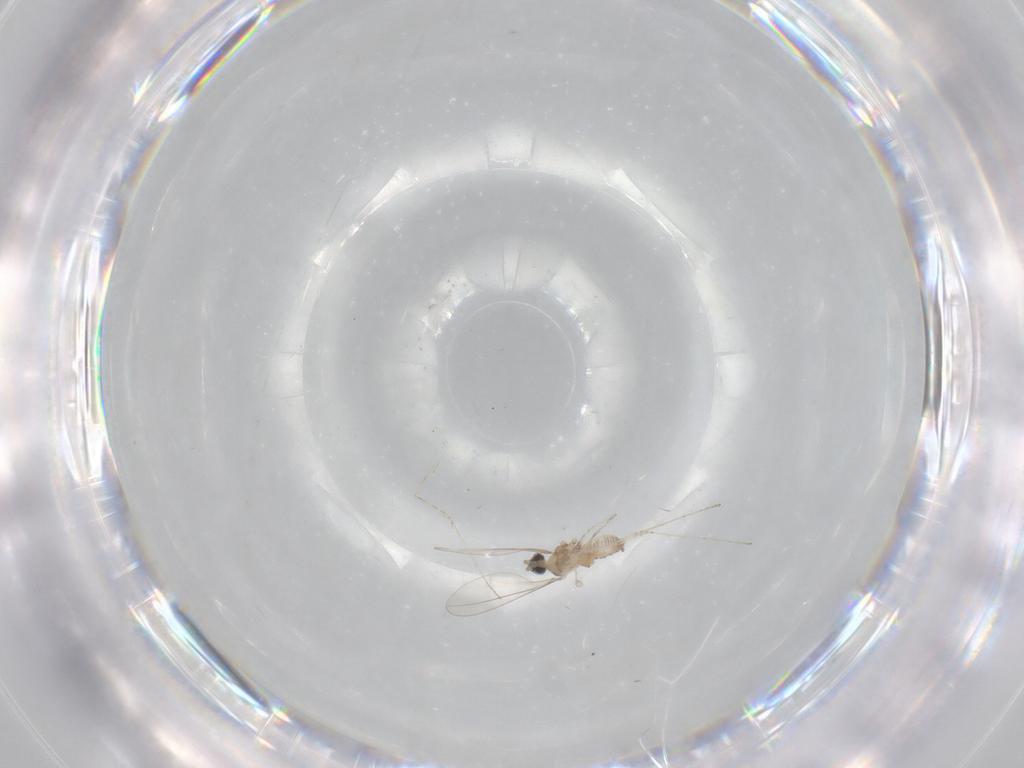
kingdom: Animalia
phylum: Arthropoda
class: Insecta
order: Diptera
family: Cecidomyiidae
